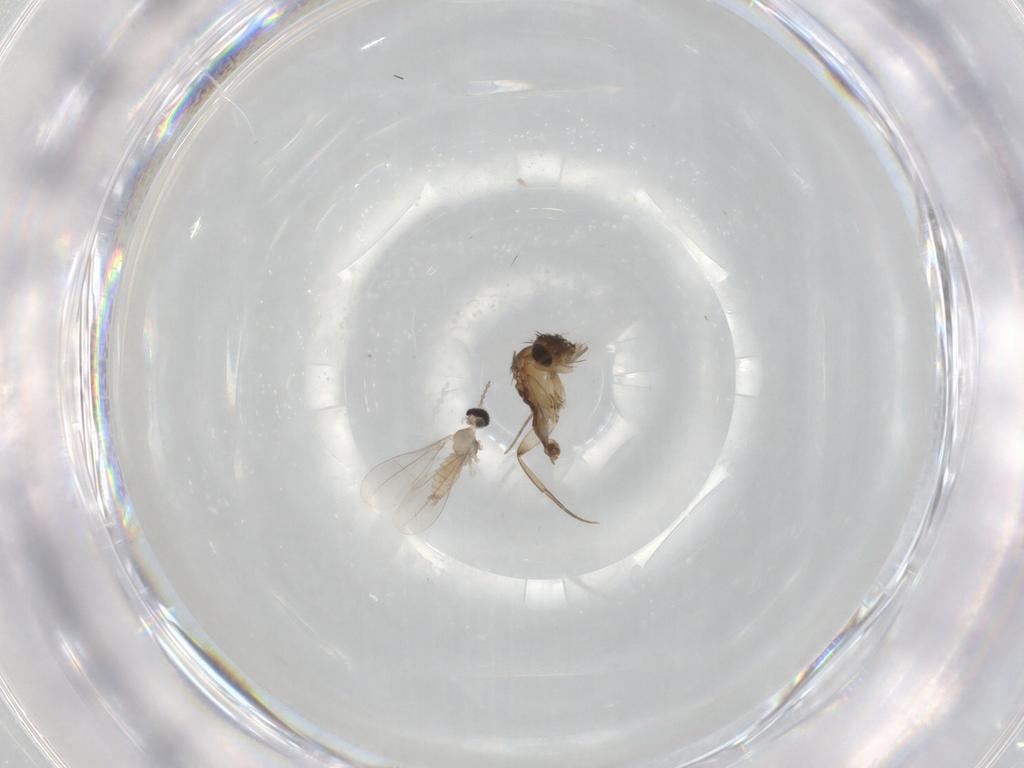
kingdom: Animalia
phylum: Arthropoda
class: Insecta
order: Diptera
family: Phoridae
